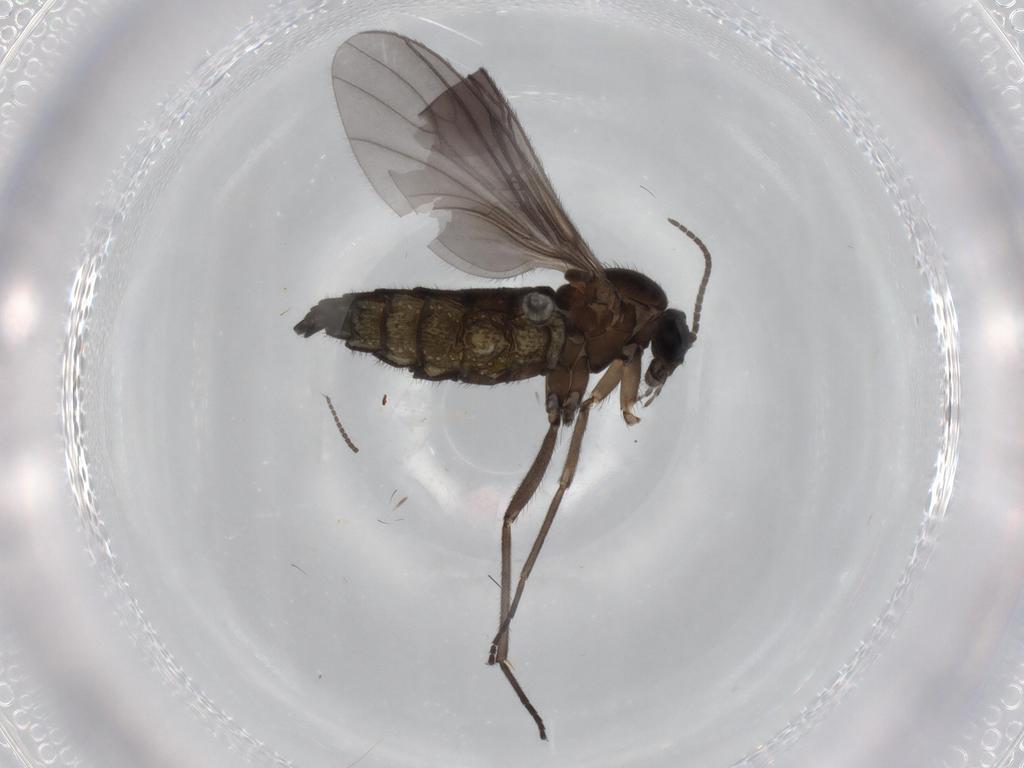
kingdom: Animalia
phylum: Arthropoda
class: Insecta
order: Diptera
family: Sciaridae
